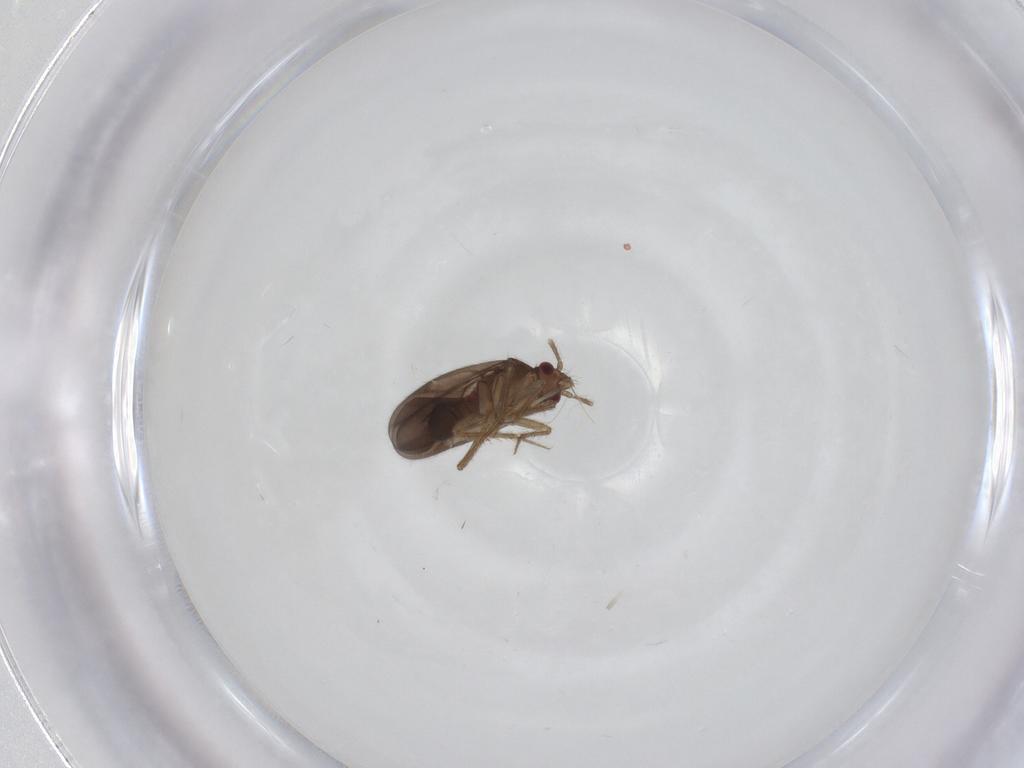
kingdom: Animalia
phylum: Arthropoda
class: Insecta
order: Hemiptera
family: Ceratocombidae
